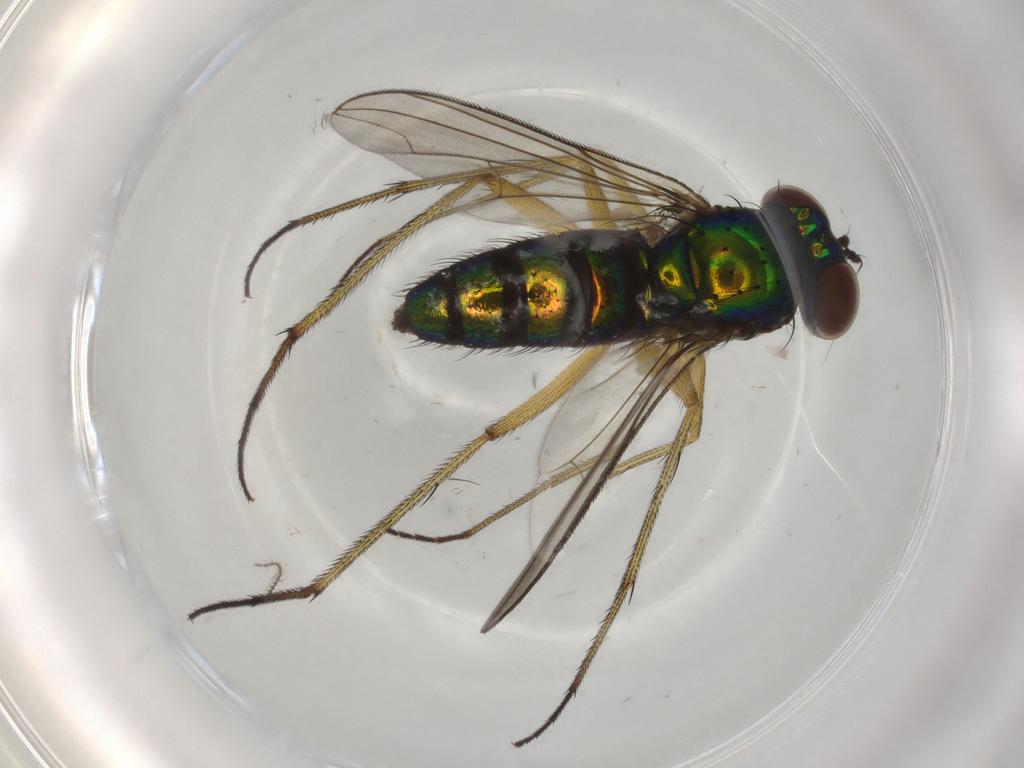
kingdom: Animalia
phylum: Arthropoda
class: Insecta
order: Diptera
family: Dolichopodidae
